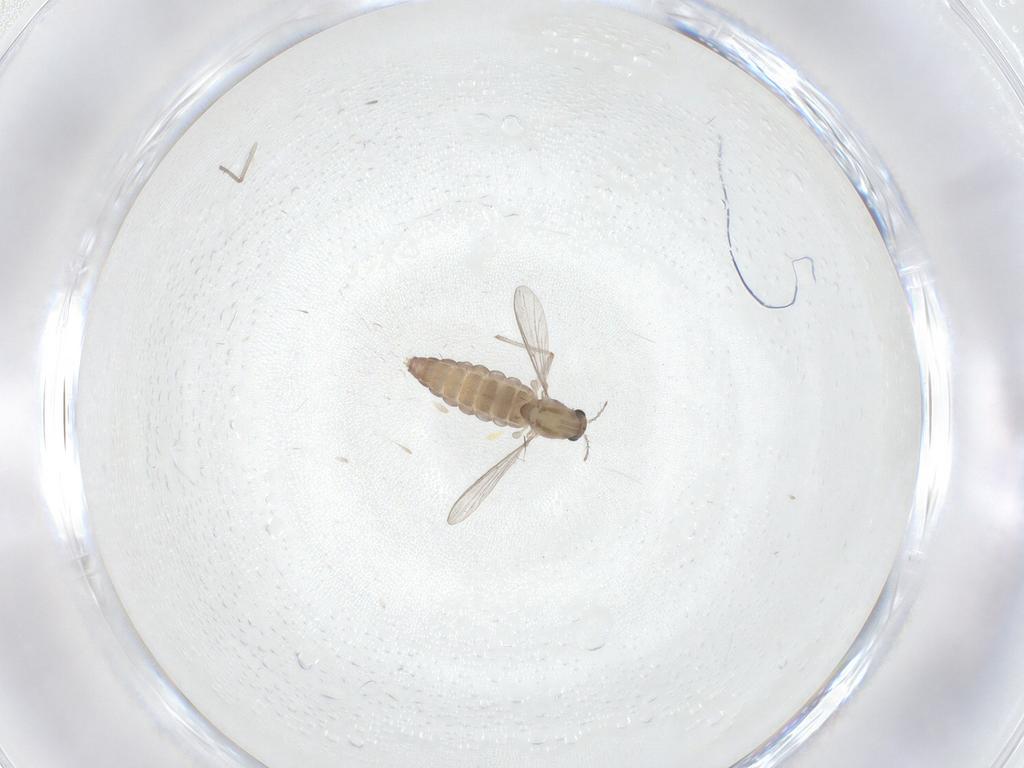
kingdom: Animalia
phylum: Arthropoda
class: Insecta
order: Diptera
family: Chironomidae
